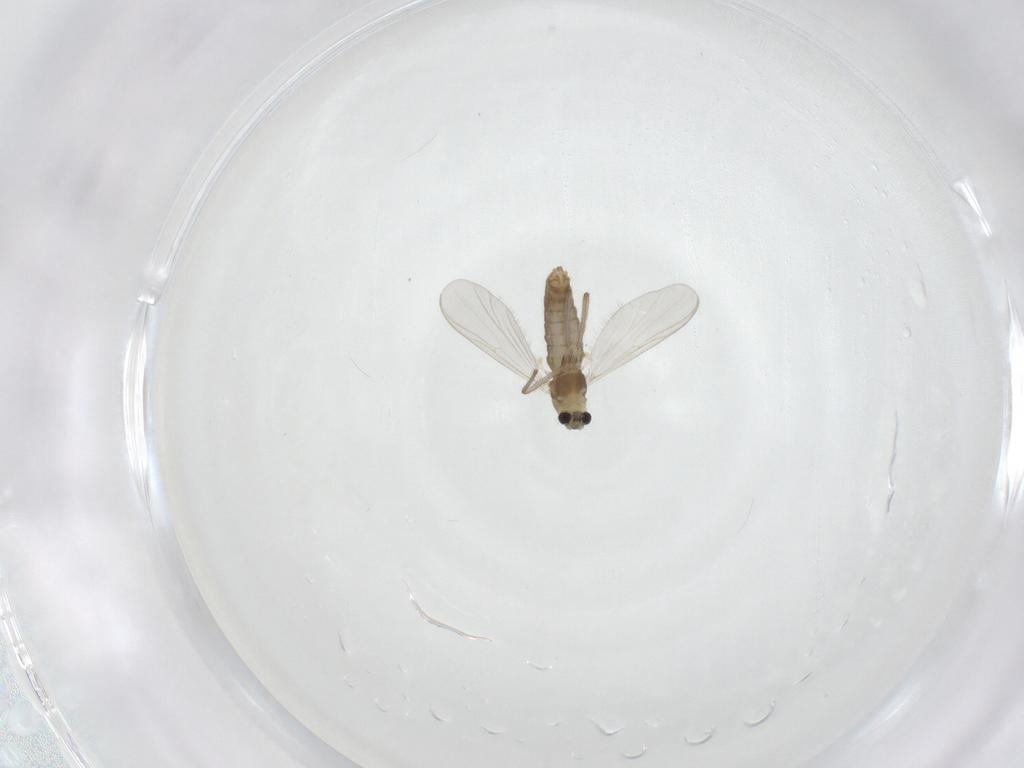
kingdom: Animalia
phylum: Arthropoda
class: Insecta
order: Diptera
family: Chironomidae
